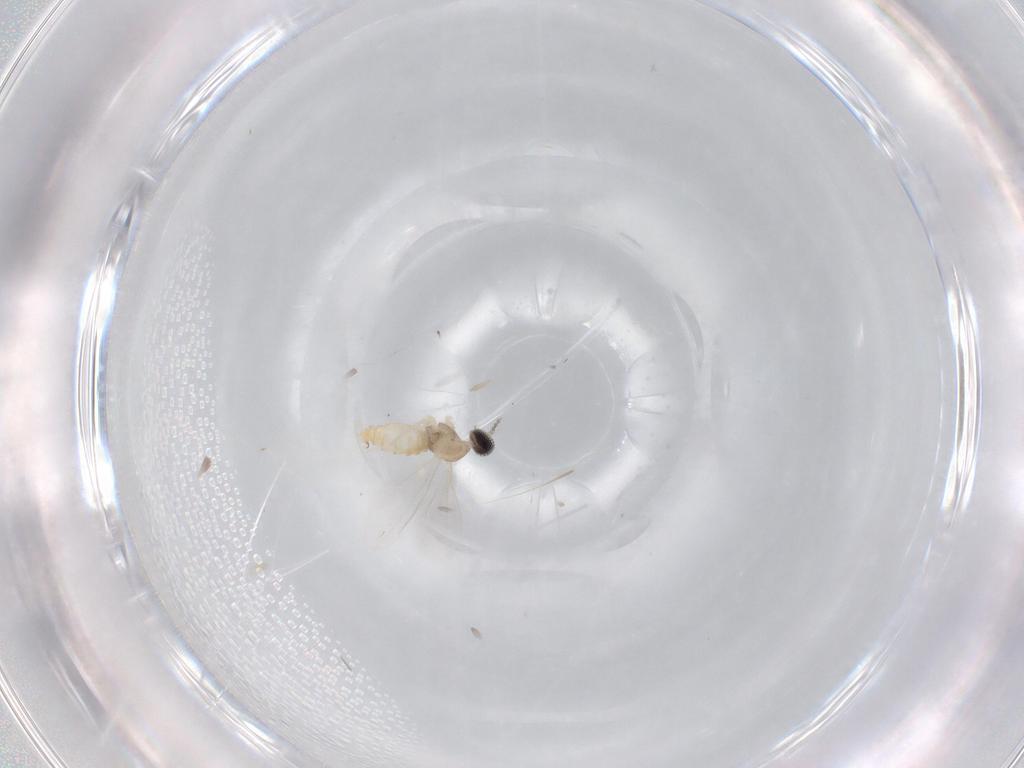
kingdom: Animalia
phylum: Arthropoda
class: Insecta
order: Diptera
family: Cecidomyiidae
